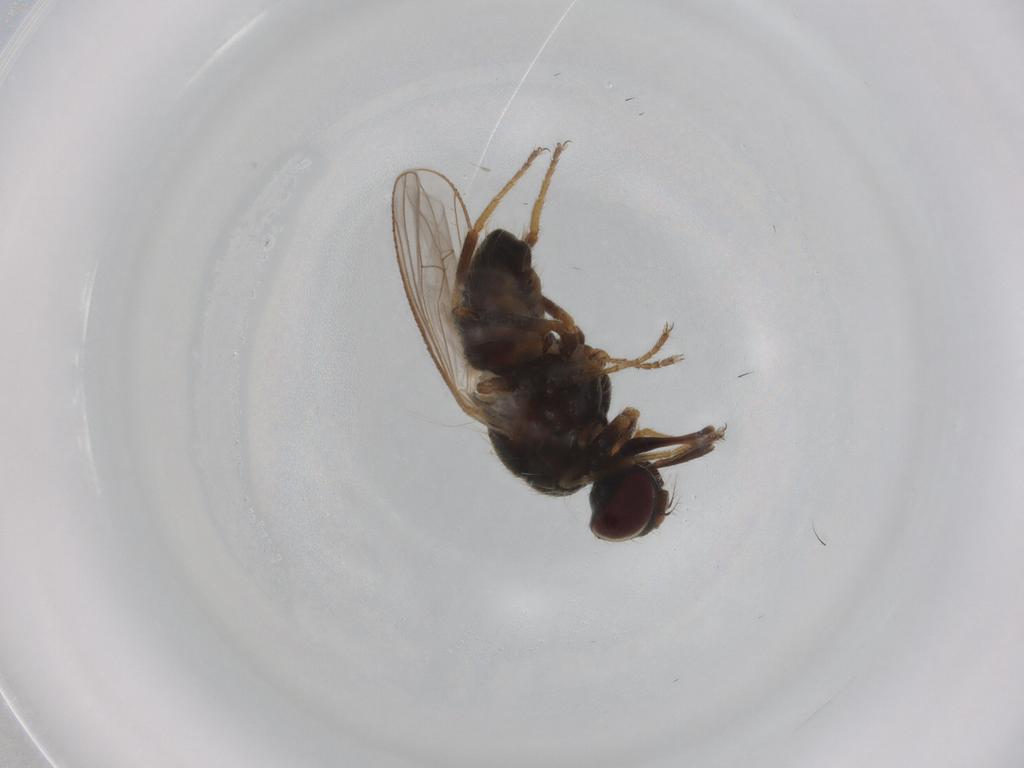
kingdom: Animalia
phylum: Arthropoda
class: Insecta
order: Diptera
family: Muscidae
